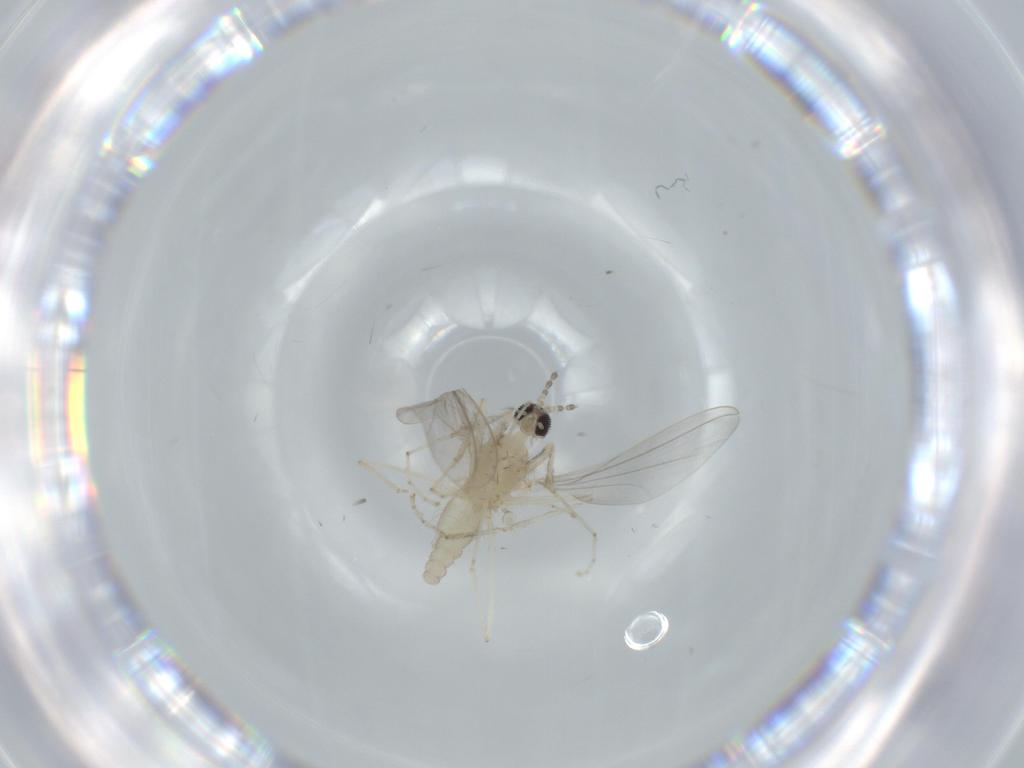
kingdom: Animalia
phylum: Arthropoda
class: Insecta
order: Diptera
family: Cecidomyiidae
